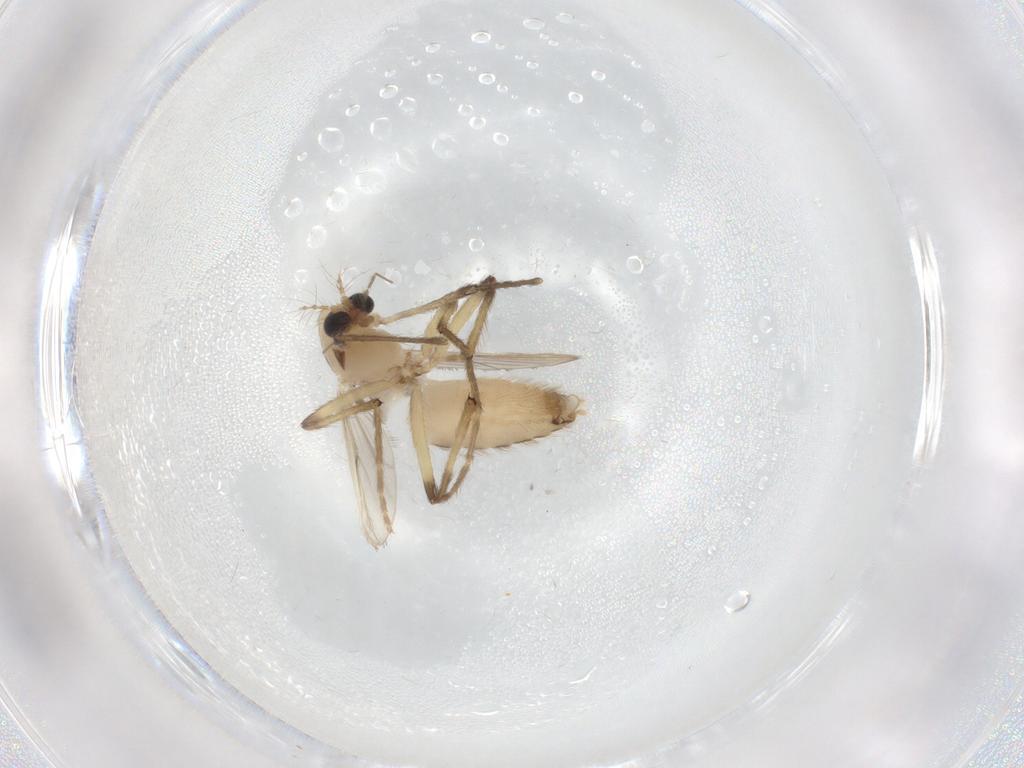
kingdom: Animalia
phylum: Arthropoda
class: Insecta
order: Diptera
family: Chironomidae
